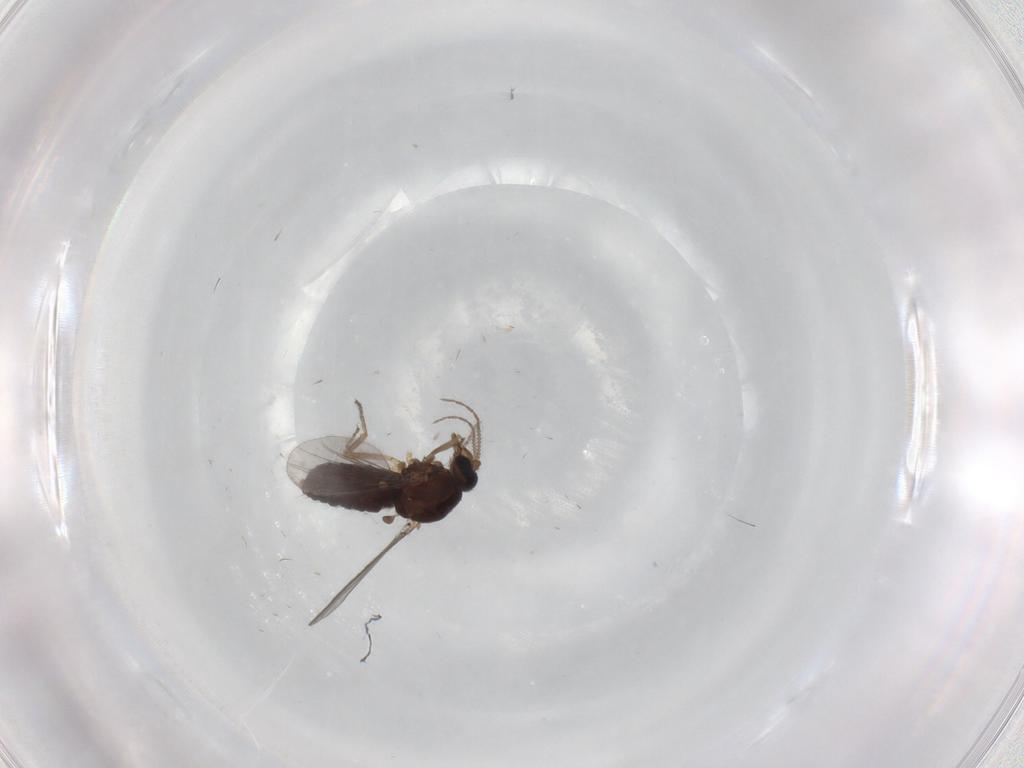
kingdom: Animalia
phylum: Arthropoda
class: Insecta
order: Diptera
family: Ceratopogonidae
